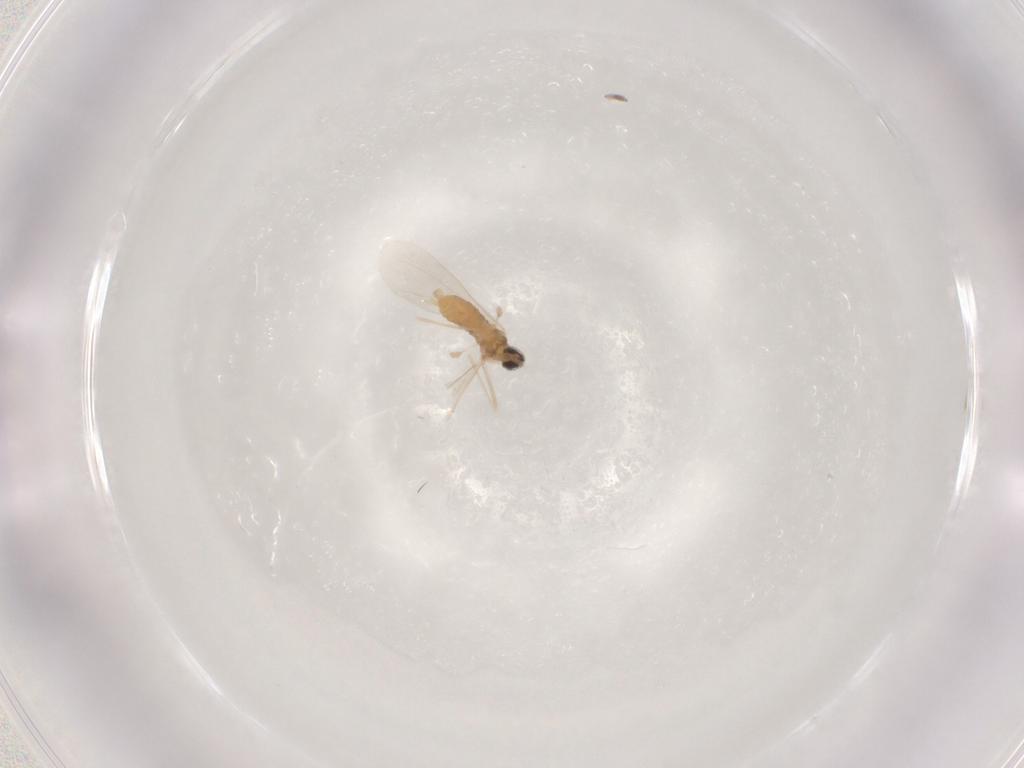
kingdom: Animalia
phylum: Arthropoda
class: Insecta
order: Diptera
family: Cecidomyiidae
